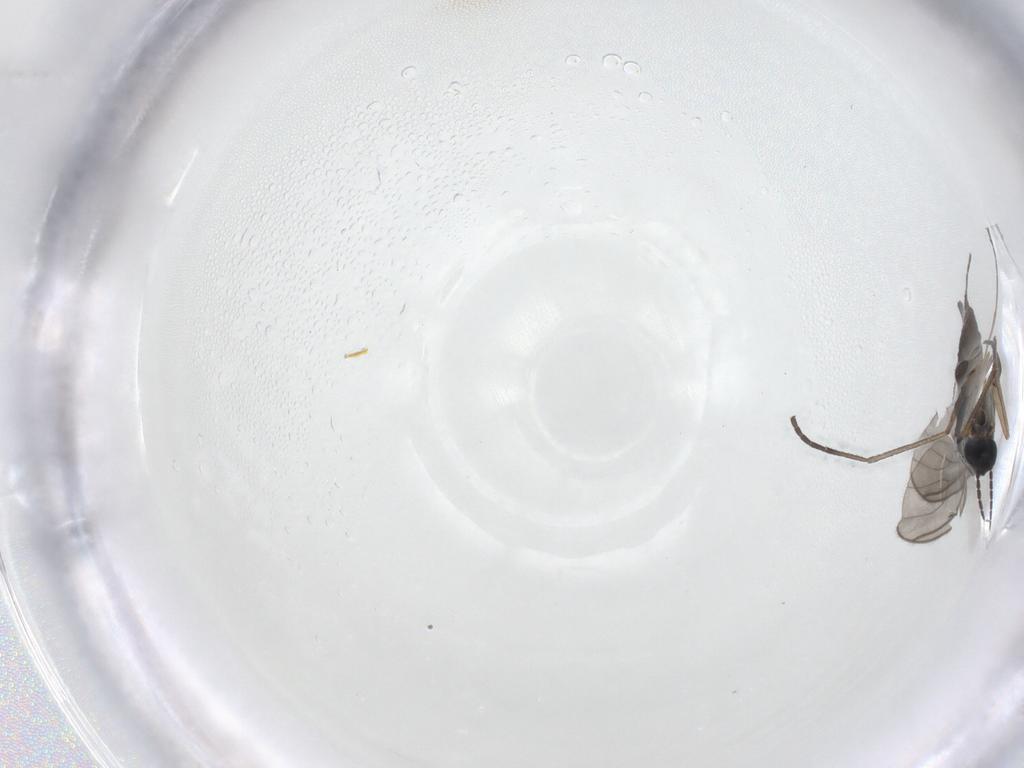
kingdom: Animalia
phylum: Arthropoda
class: Insecta
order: Diptera
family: Sciaridae
